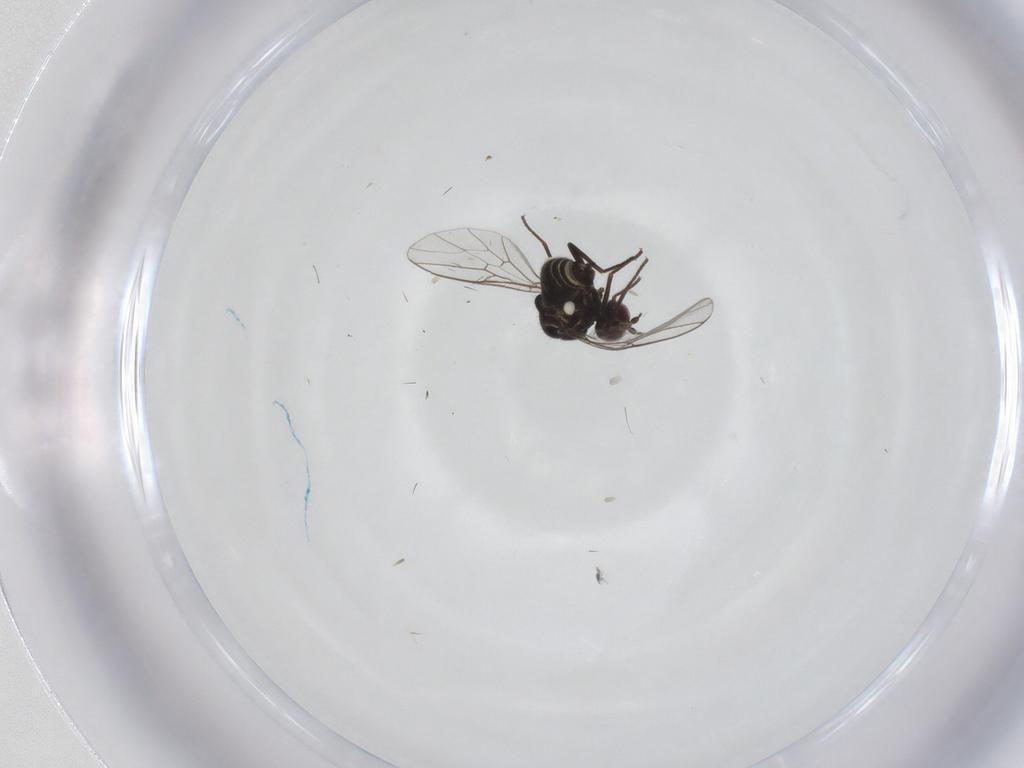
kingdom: Animalia
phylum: Arthropoda
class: Insecta
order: Diptera
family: Syrphidae
